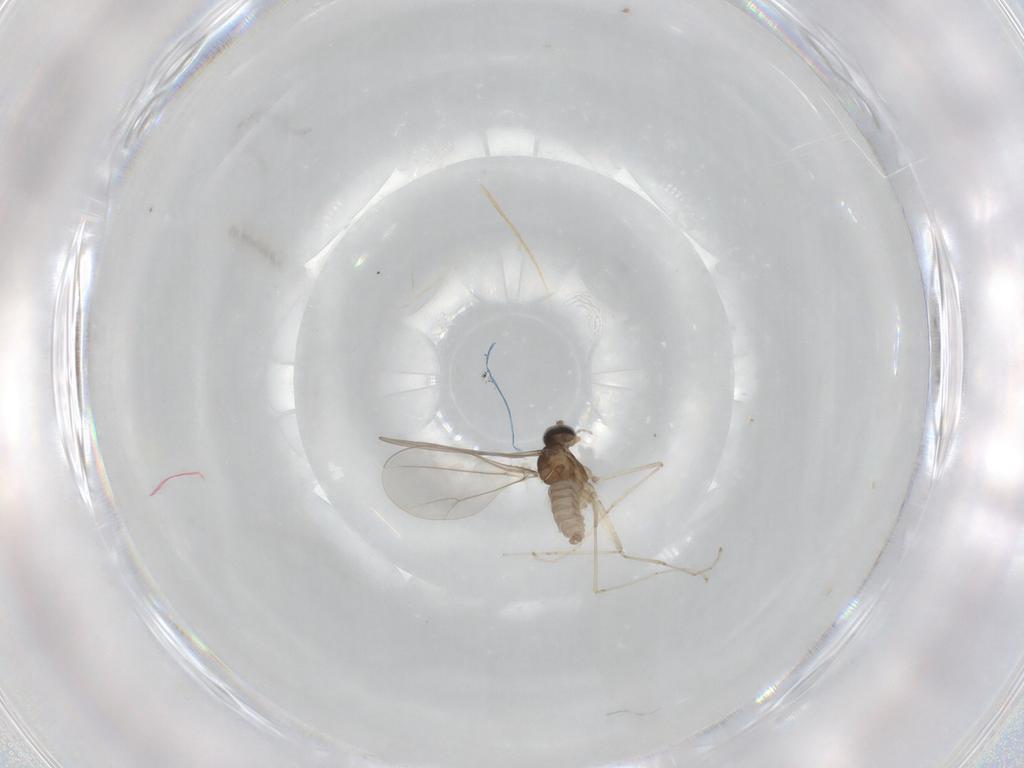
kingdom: Animalia
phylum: Arthropoda
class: Insecta
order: Diptera
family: Cecidomyiidae
